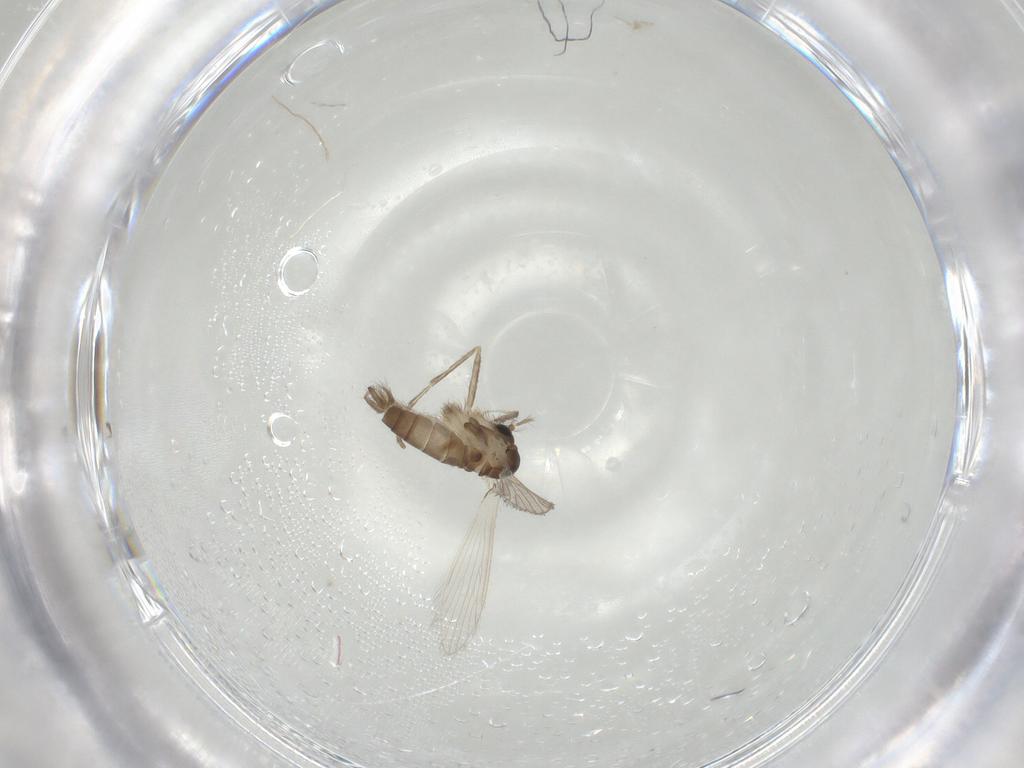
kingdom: Animalia
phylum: Arthropoda
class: Insecta
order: Diptera
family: Psychodidae
